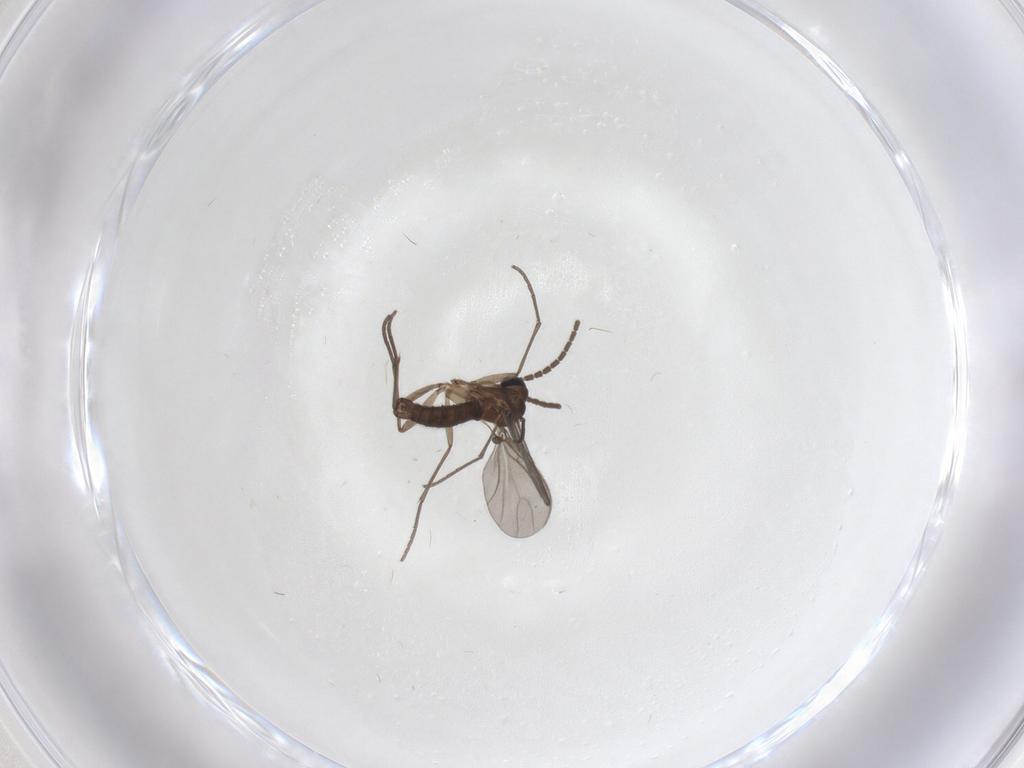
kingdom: Animalia
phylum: Arthropoda
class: Insecta
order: Diptera
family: Sciaridae
